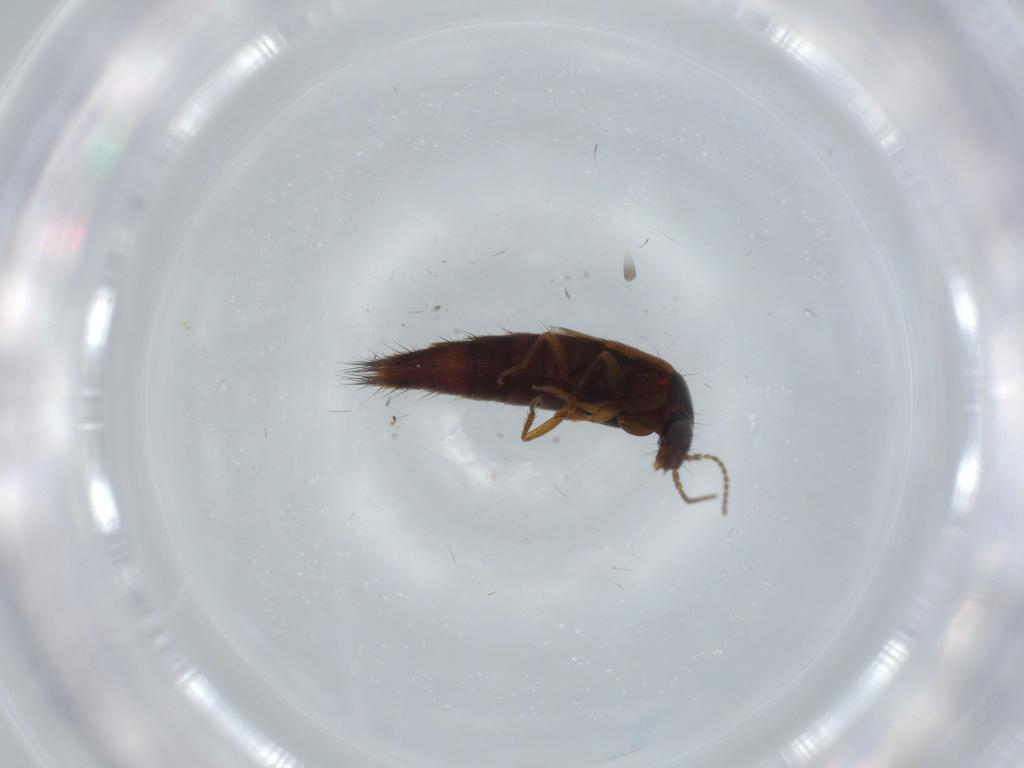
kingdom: Animalia
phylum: Arthropoda
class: Insecta
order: Coleoptera
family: Staphylinidae
